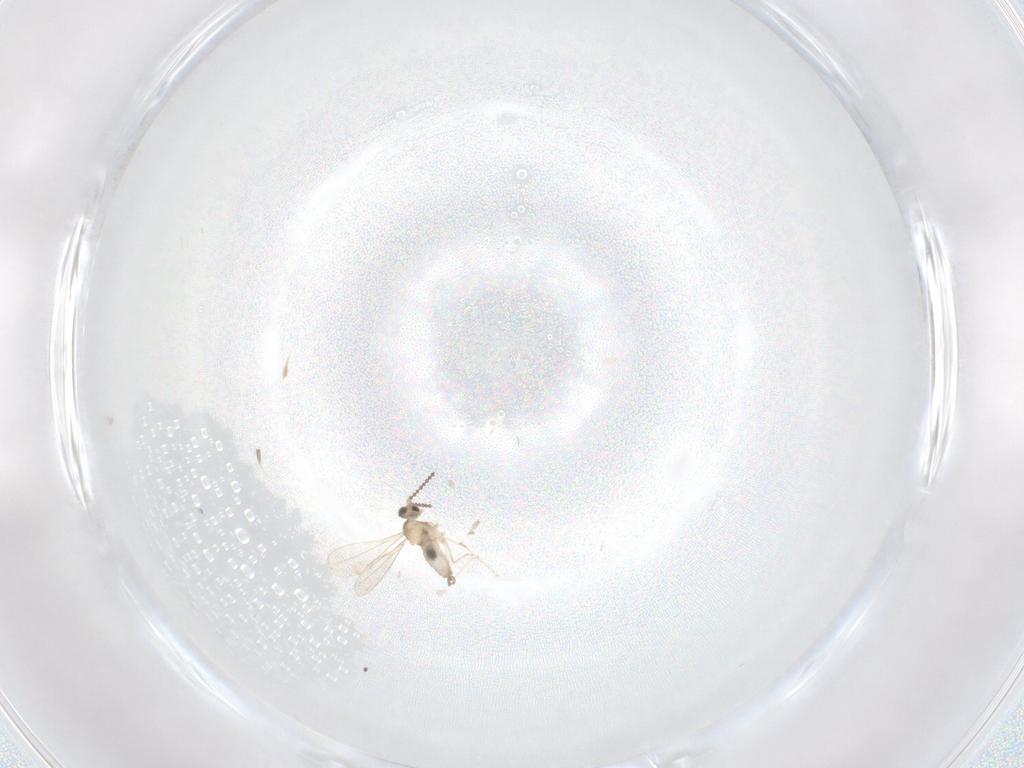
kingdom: Animalia
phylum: Arthropoda
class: Insecta
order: Diptera
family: Cecidomyiidae
